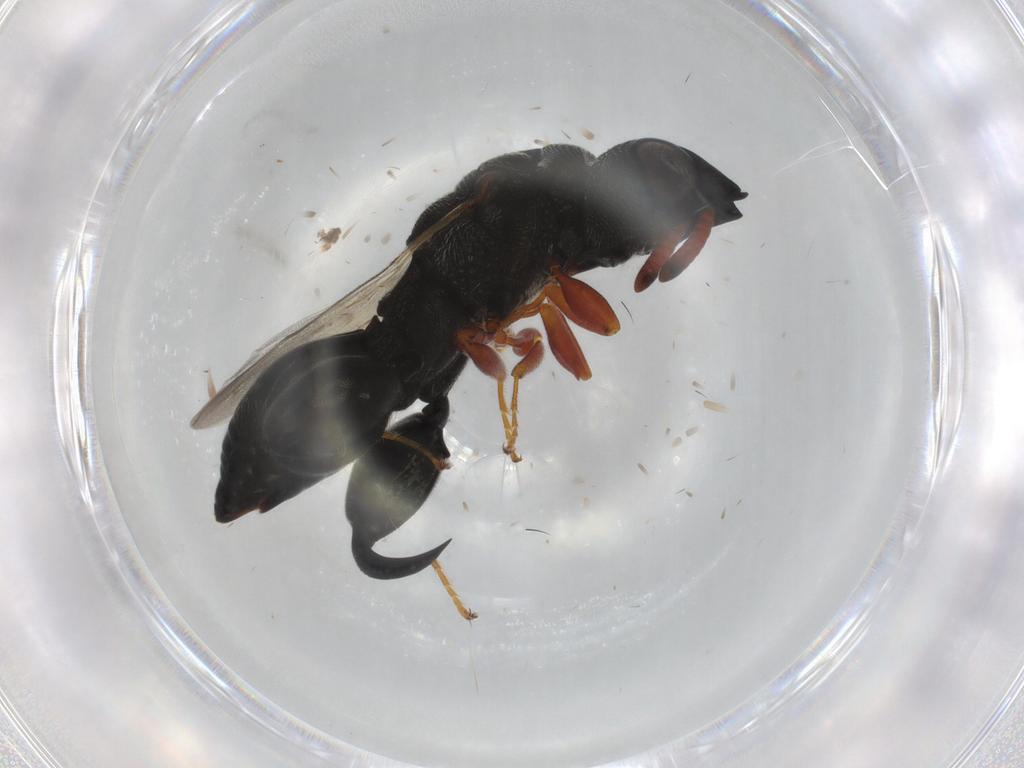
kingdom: Animalia
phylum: Arthropoda
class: Insecta
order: Hymenoptera
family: Chalcididae
